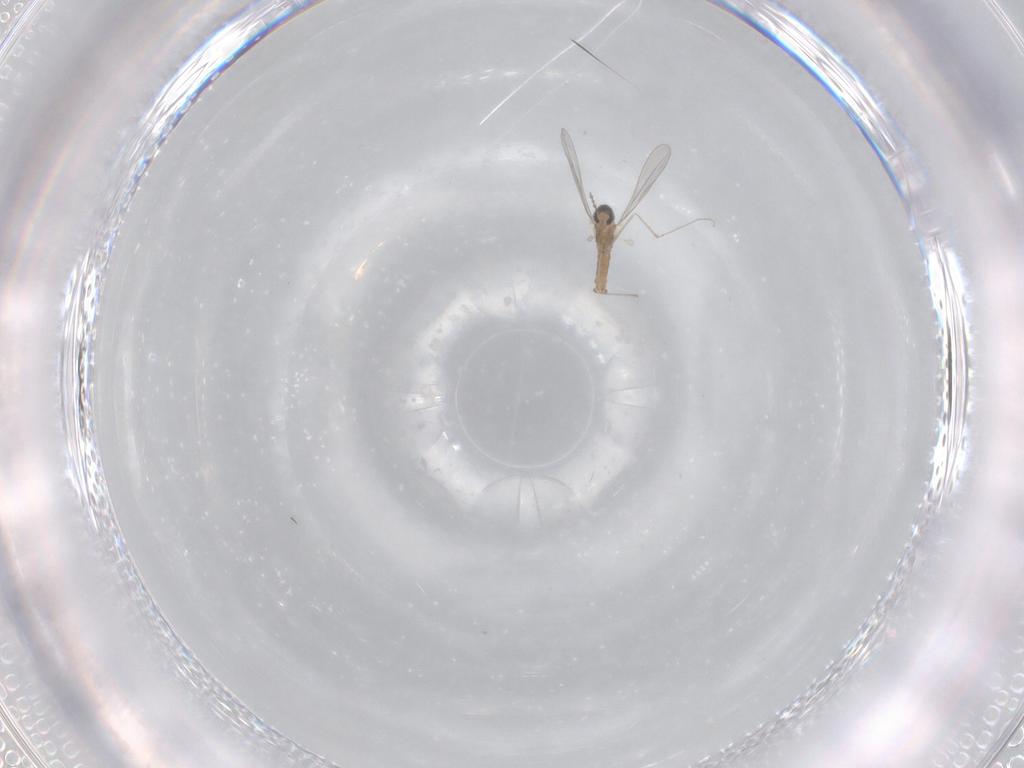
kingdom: Animalia
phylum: Arthropoda
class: Insecta
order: Diptera
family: Cecidomyiidae
